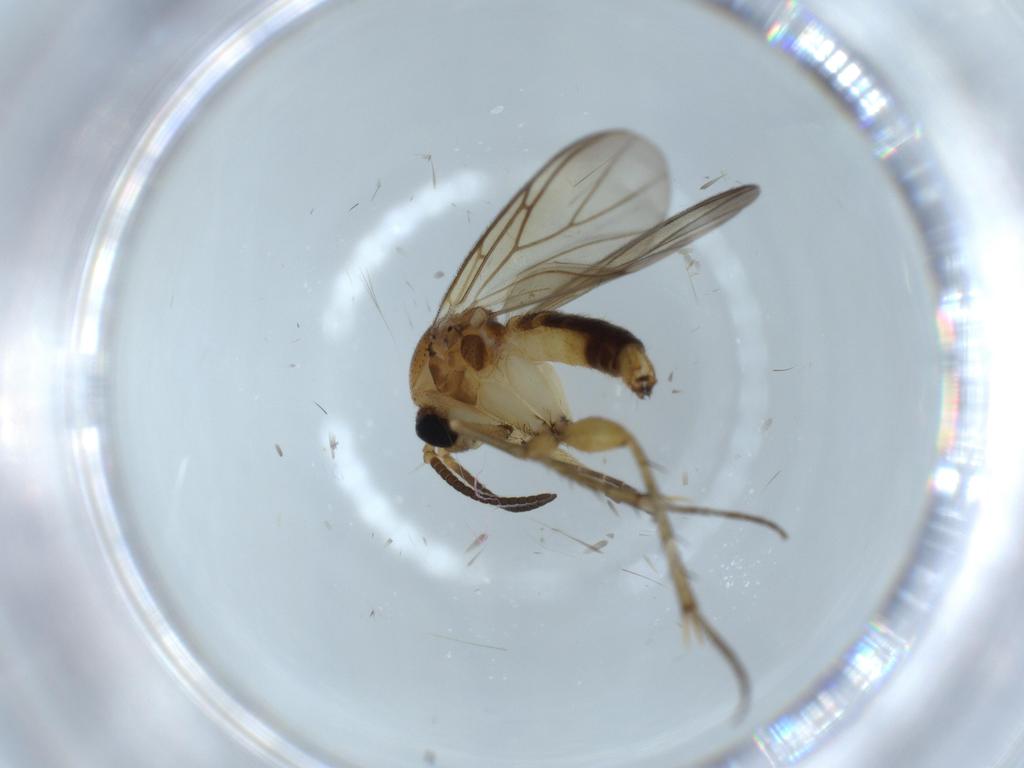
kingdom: Animalia
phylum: Arthropoda
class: Insecta
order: Diptera
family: Mycetophilidae
